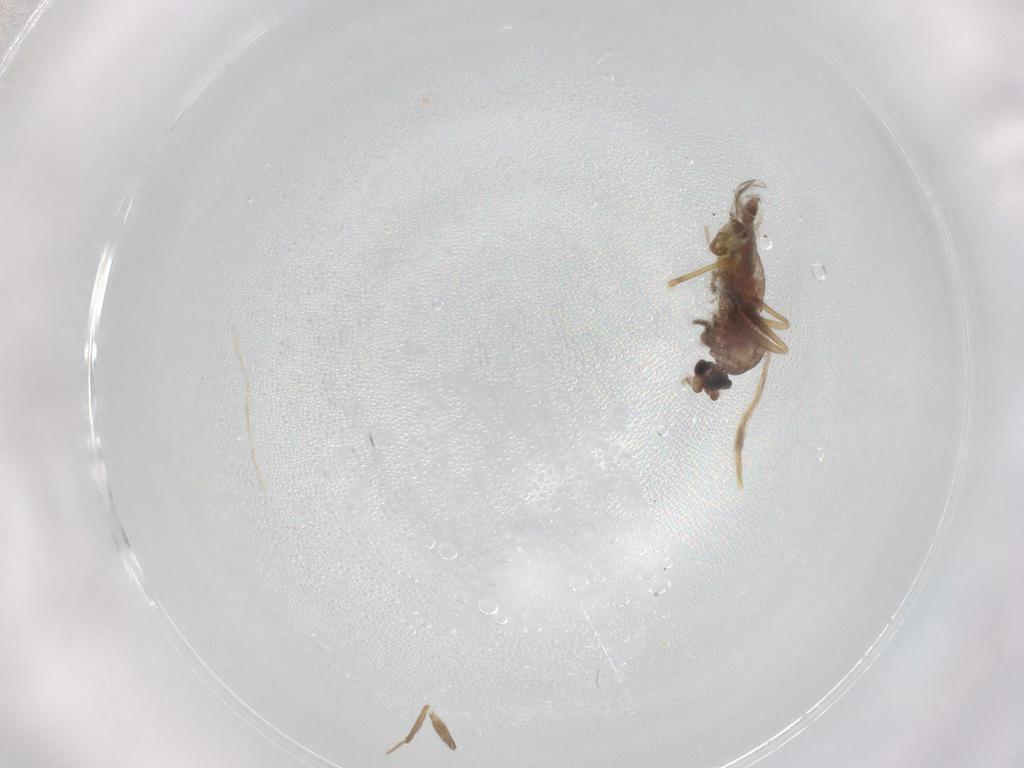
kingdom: Animalia
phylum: Arthropoda
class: Insecta
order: Diptera
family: Corethrellidae
